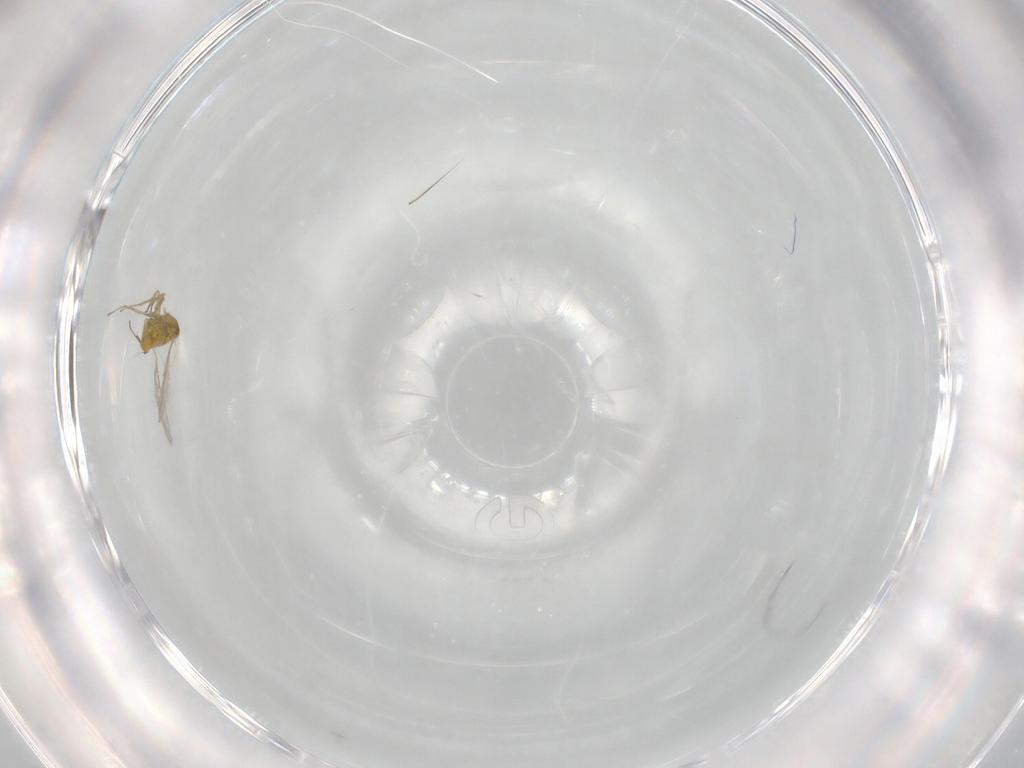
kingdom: Animalia
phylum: Arthropoda
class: Insecta
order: Hymenoptera
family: Aphelinidae
